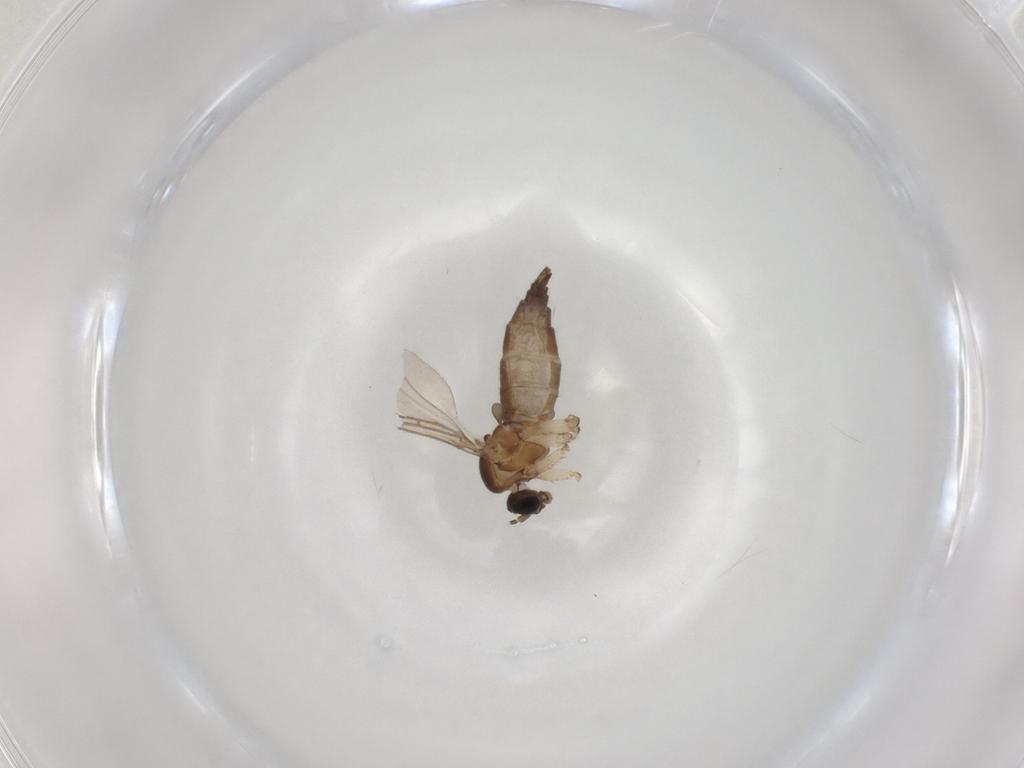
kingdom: Animalia
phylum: Arthropoda
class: Insecta
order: Diptera
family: Sciaridae
